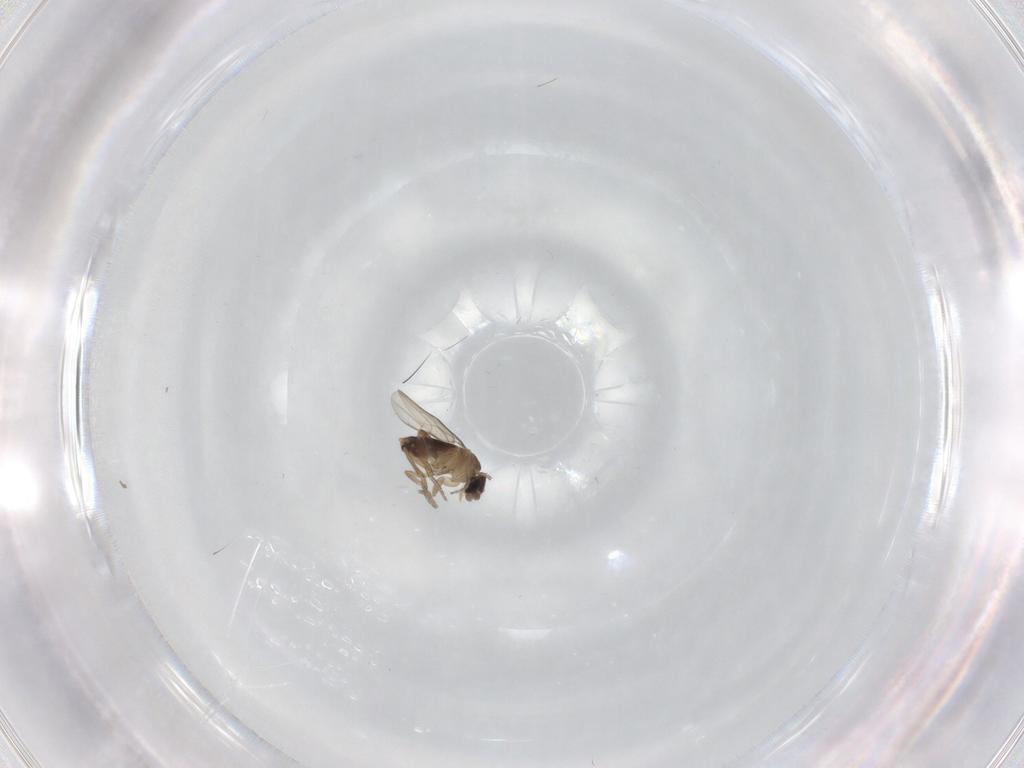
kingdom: Animalia
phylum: Arthropoda
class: Insecta
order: Diptera
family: Phoridae
